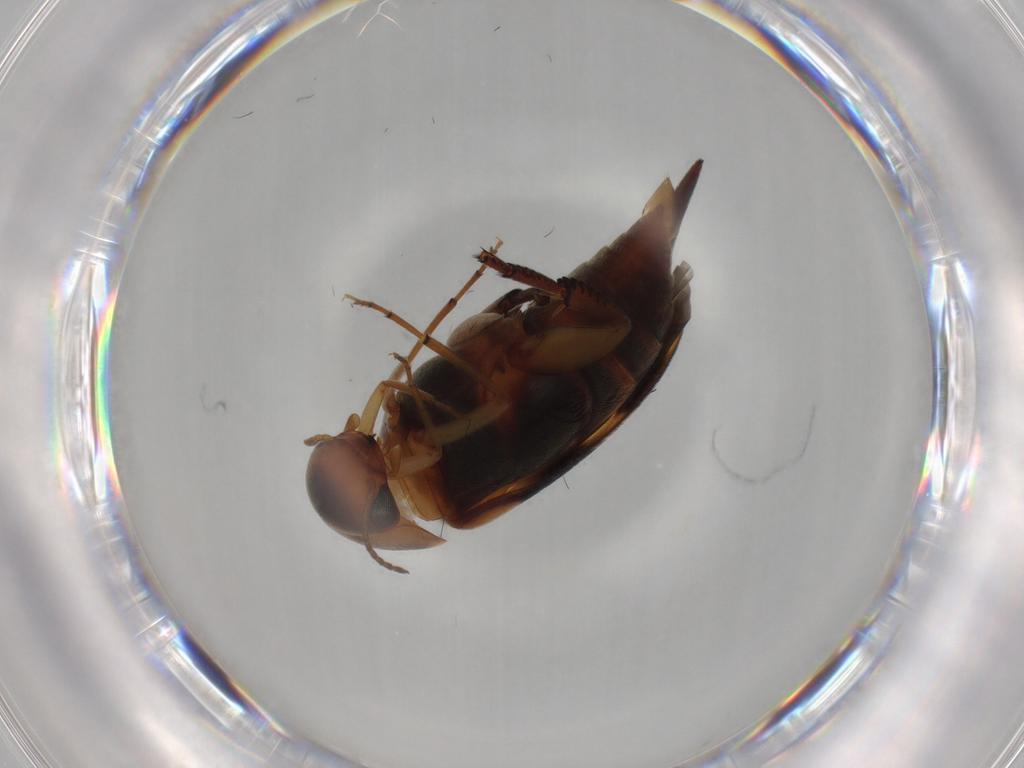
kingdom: Animalia
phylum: Arthropoda
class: Insecta
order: Coleoptera
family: Mordellidae
